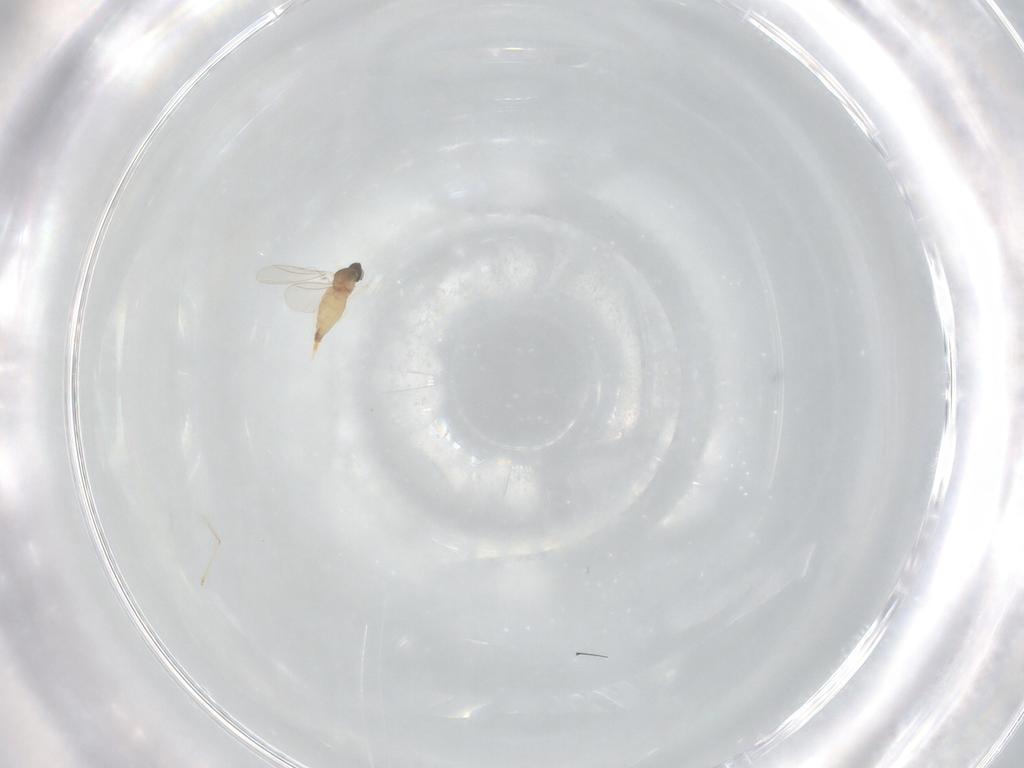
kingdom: Animalia
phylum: Arthropoda
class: Insecta
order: Diptera
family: Cecidomyiidae
